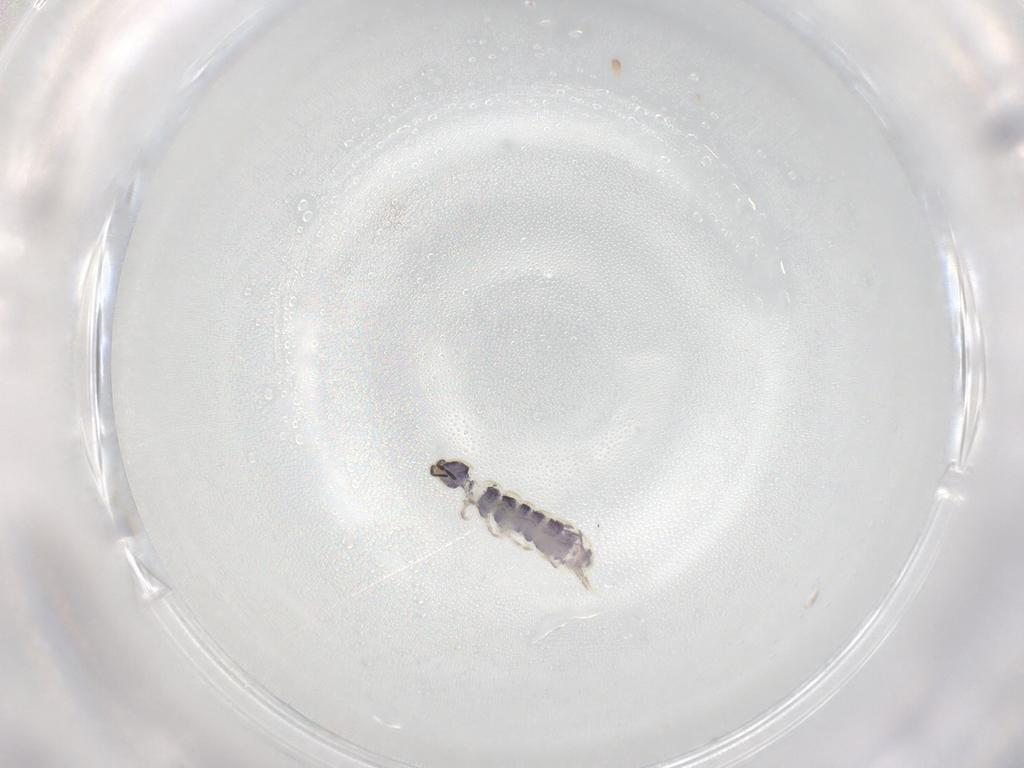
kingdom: Animalia
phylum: Arthropoda
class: Collembola
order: Entomobryomorpha
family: Isotomidae
